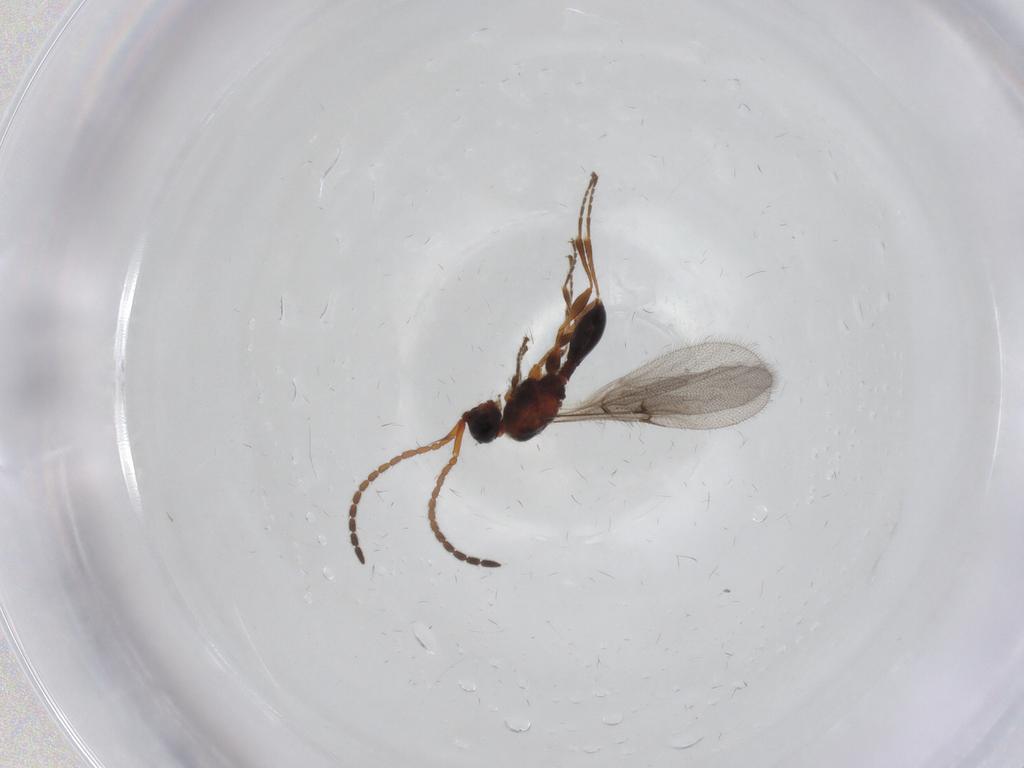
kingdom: Animalia
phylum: Arthropoda
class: Insecta
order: Hymenoptera
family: Diapriidae
